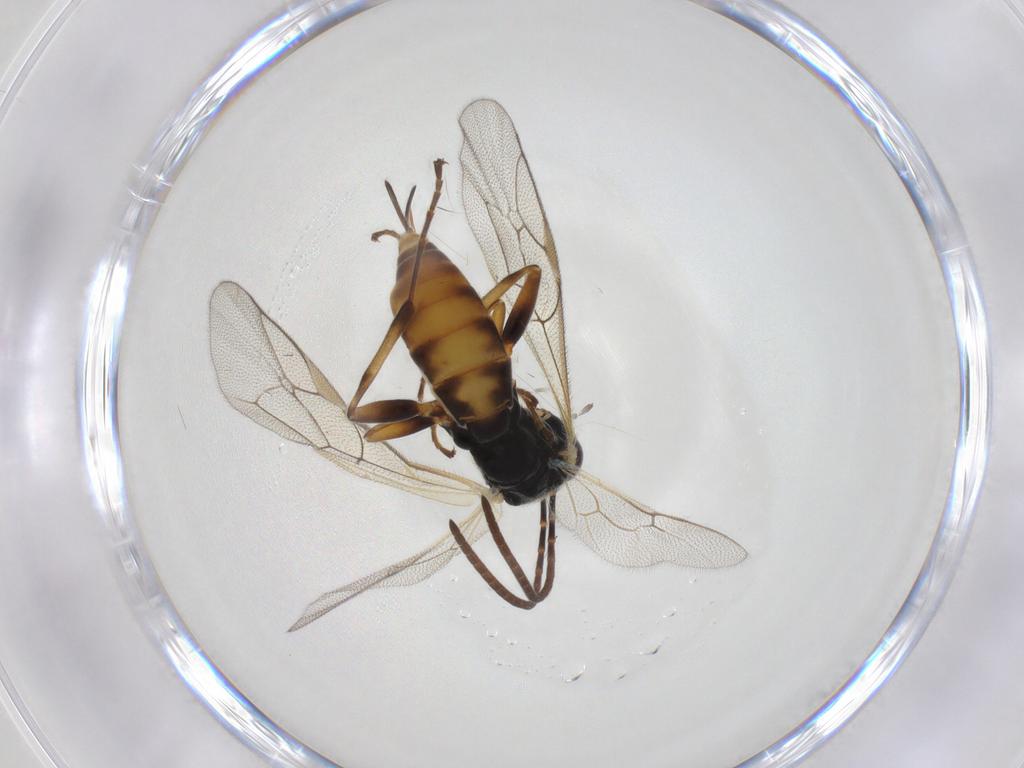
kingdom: Animalia
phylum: Arthropoda
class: Insecta
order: Hymenoptera
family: Ichneumonidae
